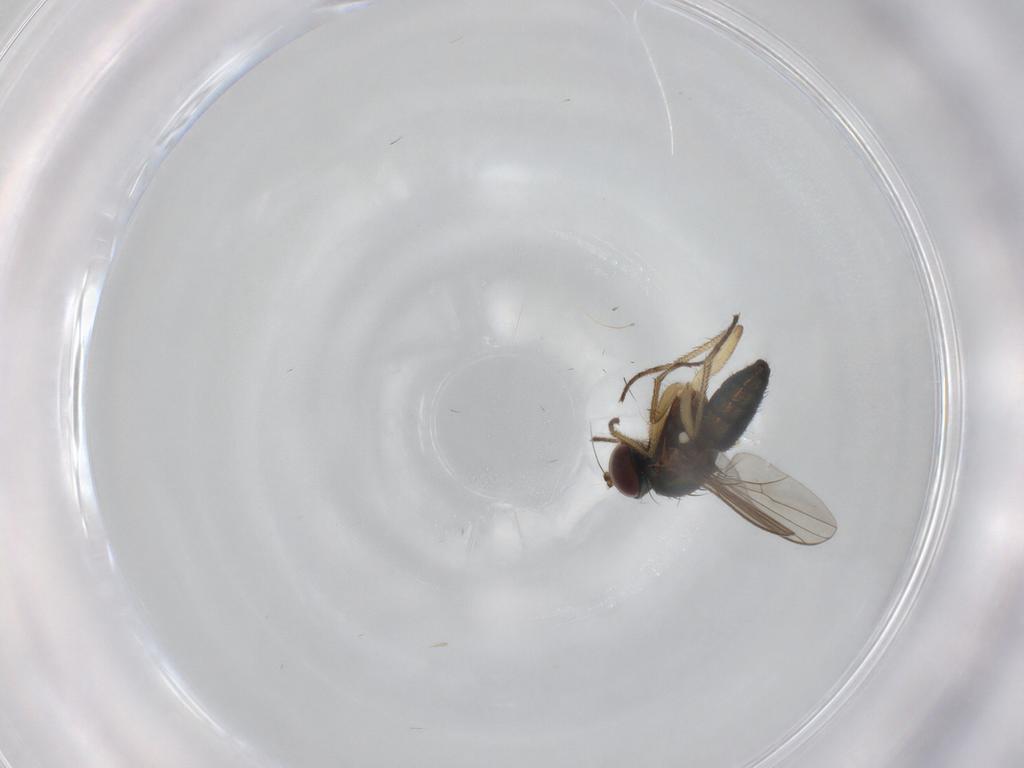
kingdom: Animalia
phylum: Arthropoda
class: Insecta
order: Diptera
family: Dolichopodidae
